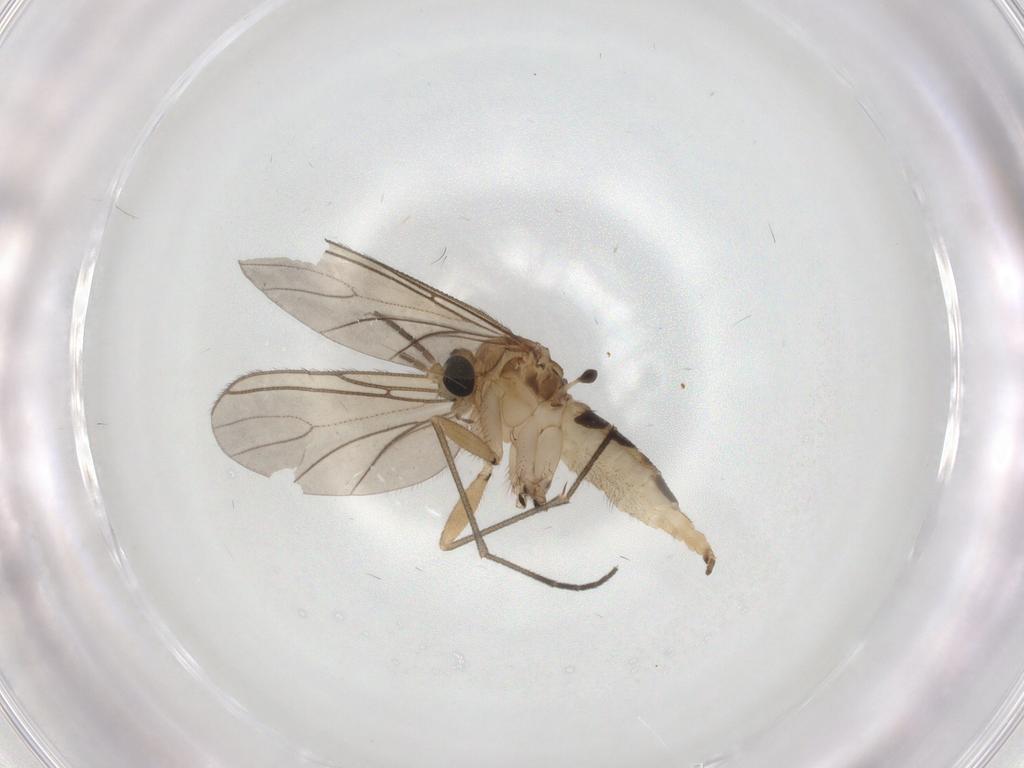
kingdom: Animalia
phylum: Arthropoda
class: Insecta
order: Diptera
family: Sciaridae
